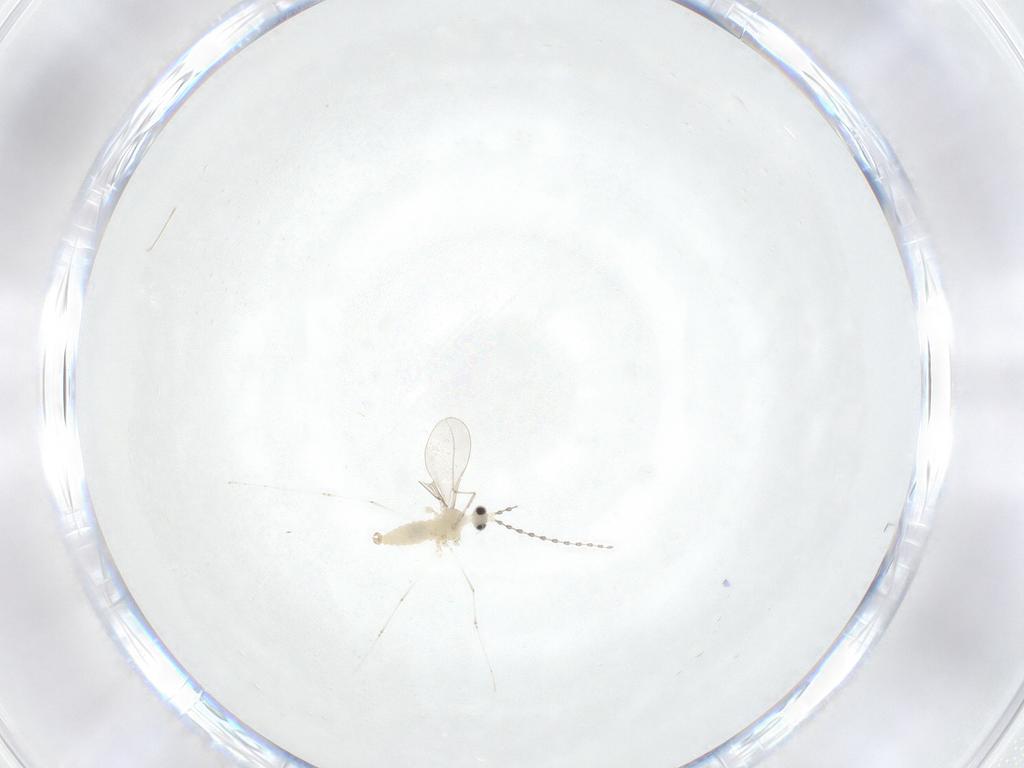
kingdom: Animalia
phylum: Arthropoda
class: Insecta
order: Diptera
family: Cecidomyiidae
